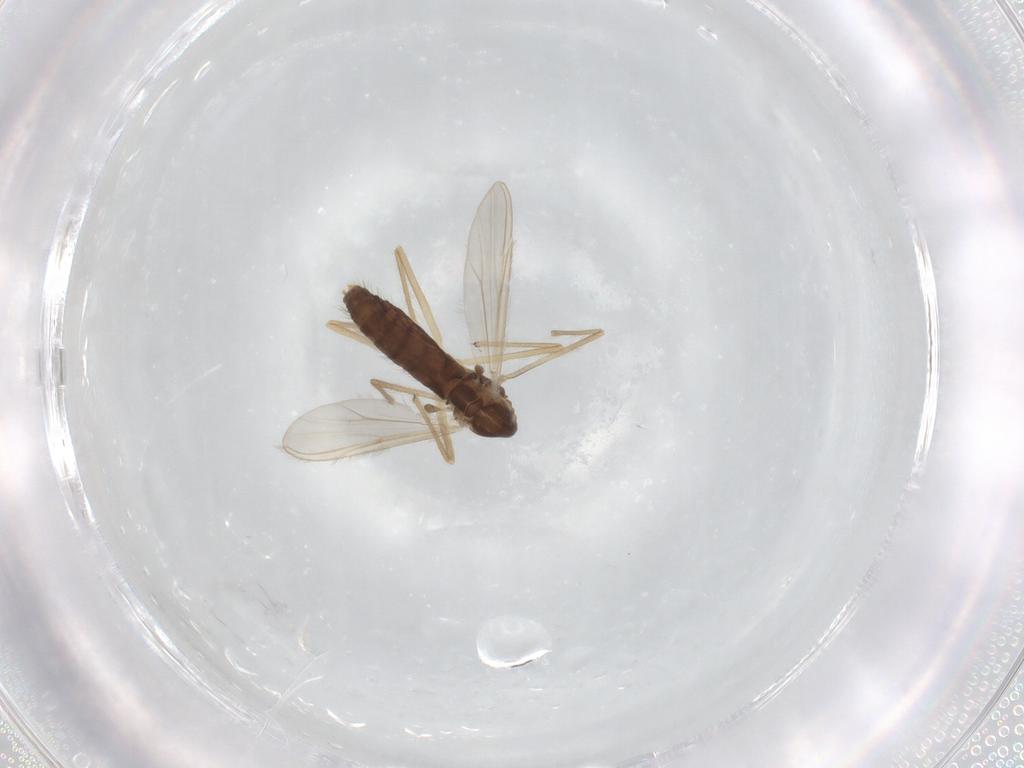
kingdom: Animalia
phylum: Arthropoda
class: Insecta
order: Diptera
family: Chironomidae
